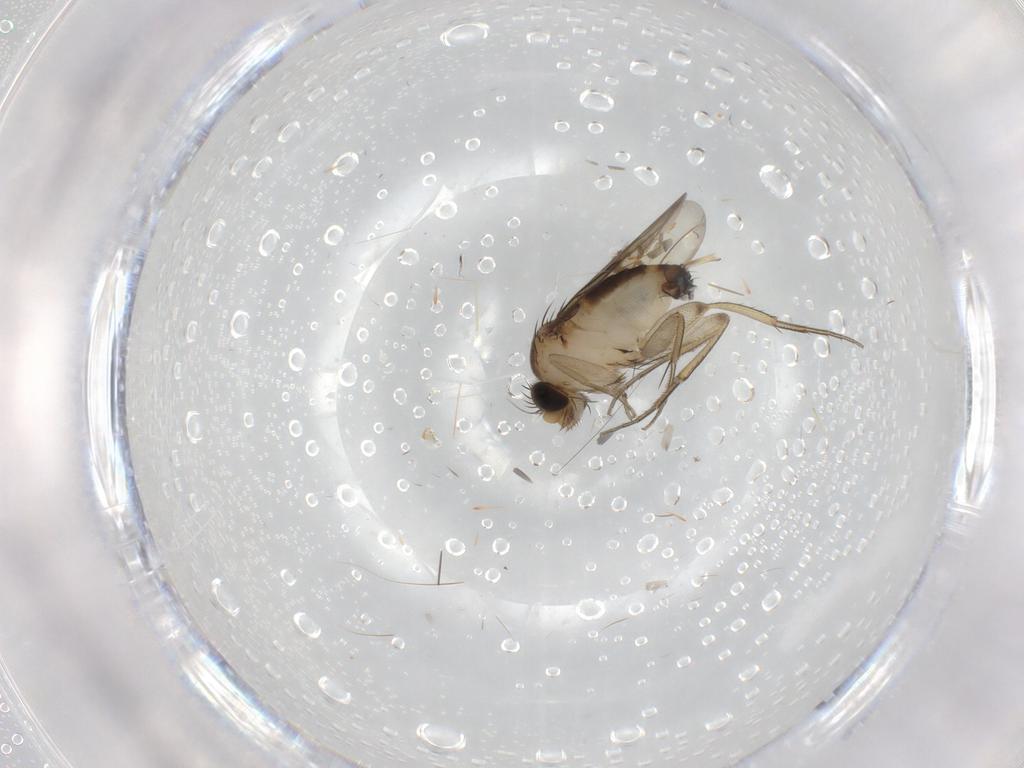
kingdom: Animalia
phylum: Arthropoda
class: Insecta
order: Diptera
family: Phoridae
